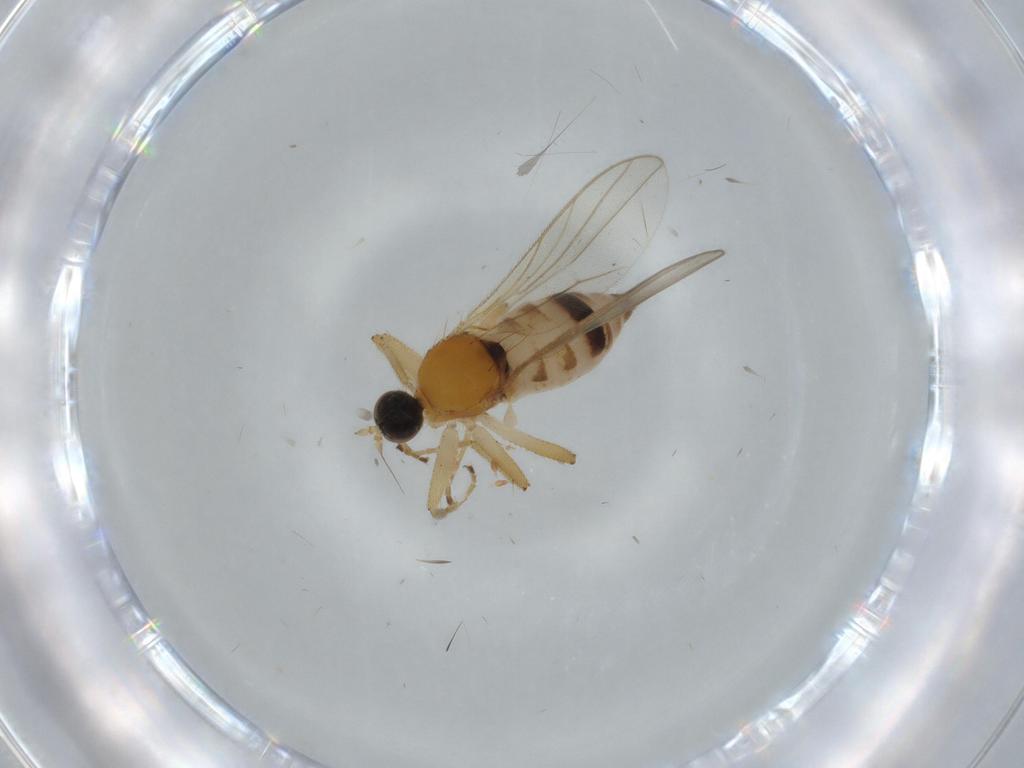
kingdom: Animalia
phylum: Arthropoda
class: Insecta
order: Diptera
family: Hybotidae
